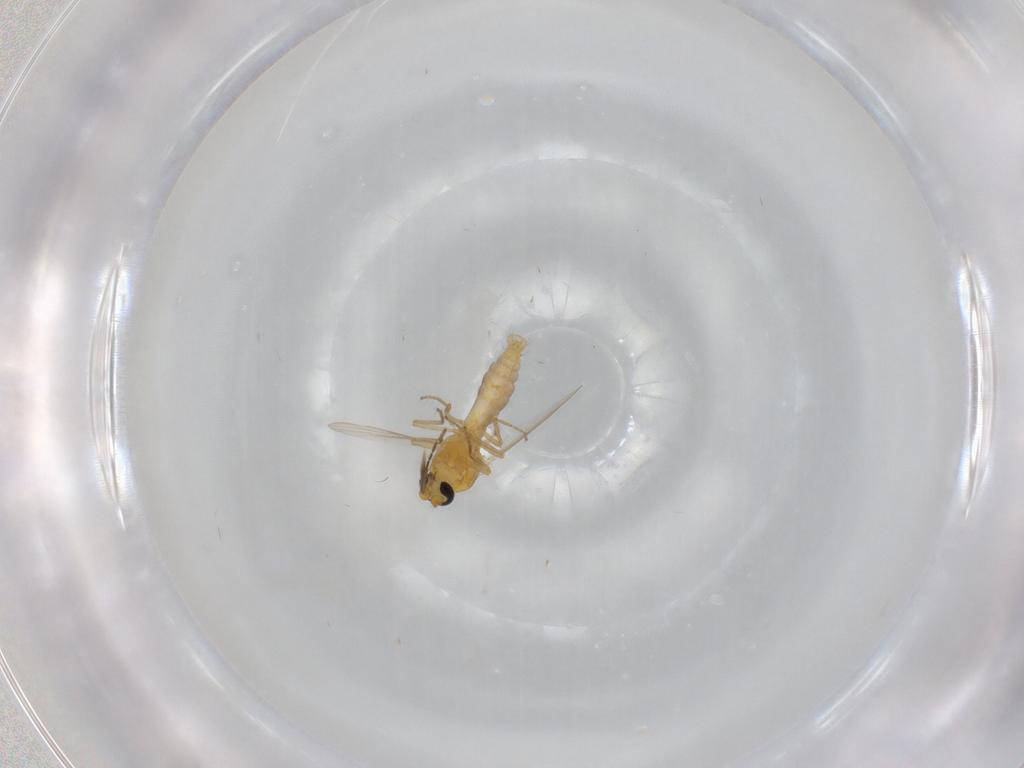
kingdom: Animalia
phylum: Arthropoda
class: Insecta
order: Diptera
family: Ceratopogonidae
